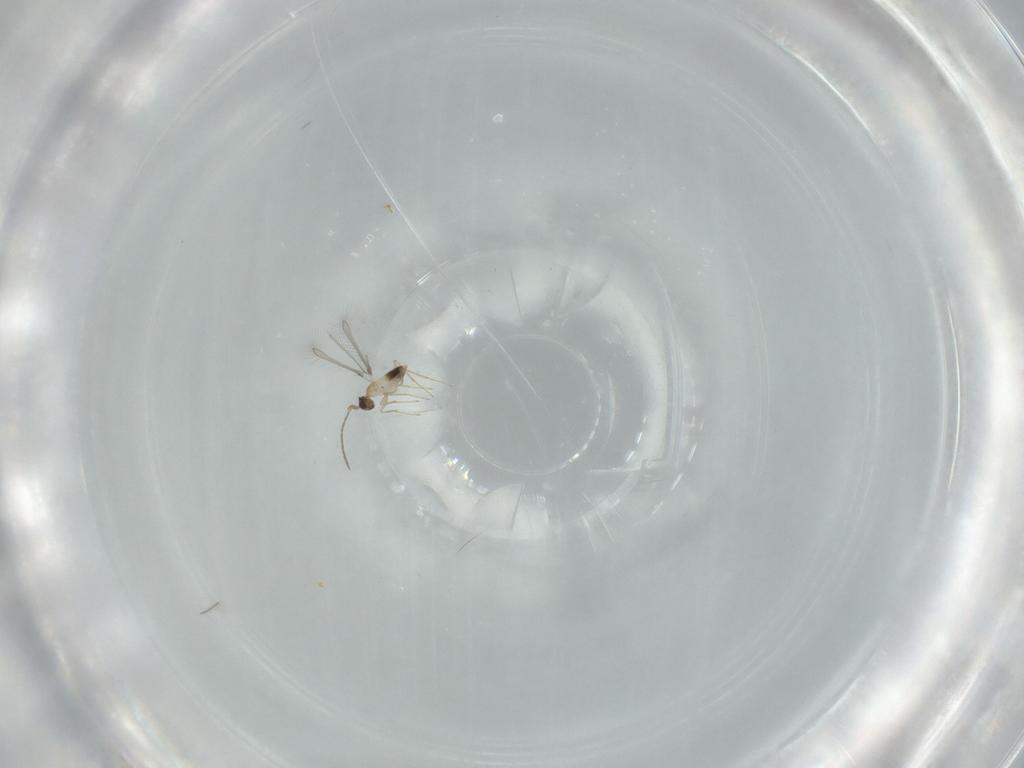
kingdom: Animalia
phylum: Arthropoda
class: Insecta
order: Hymenoptera
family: Mymaridae
